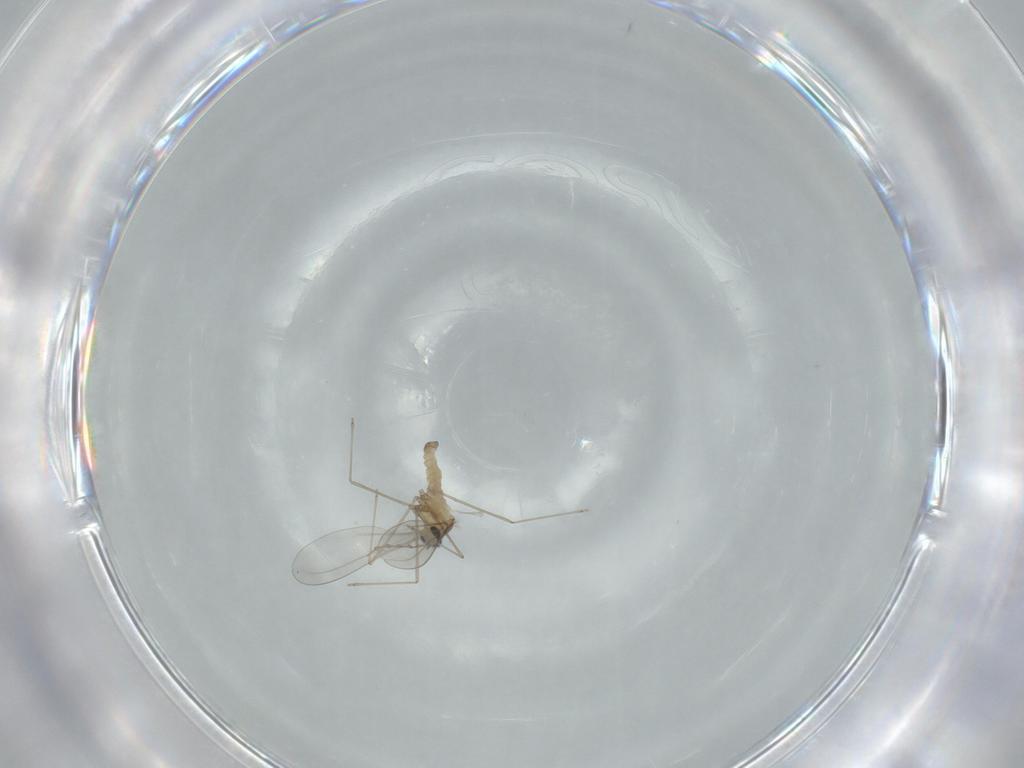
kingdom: Animalia
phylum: Arthropoda
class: Insecta
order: Diptera
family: Cecidomyiidae
